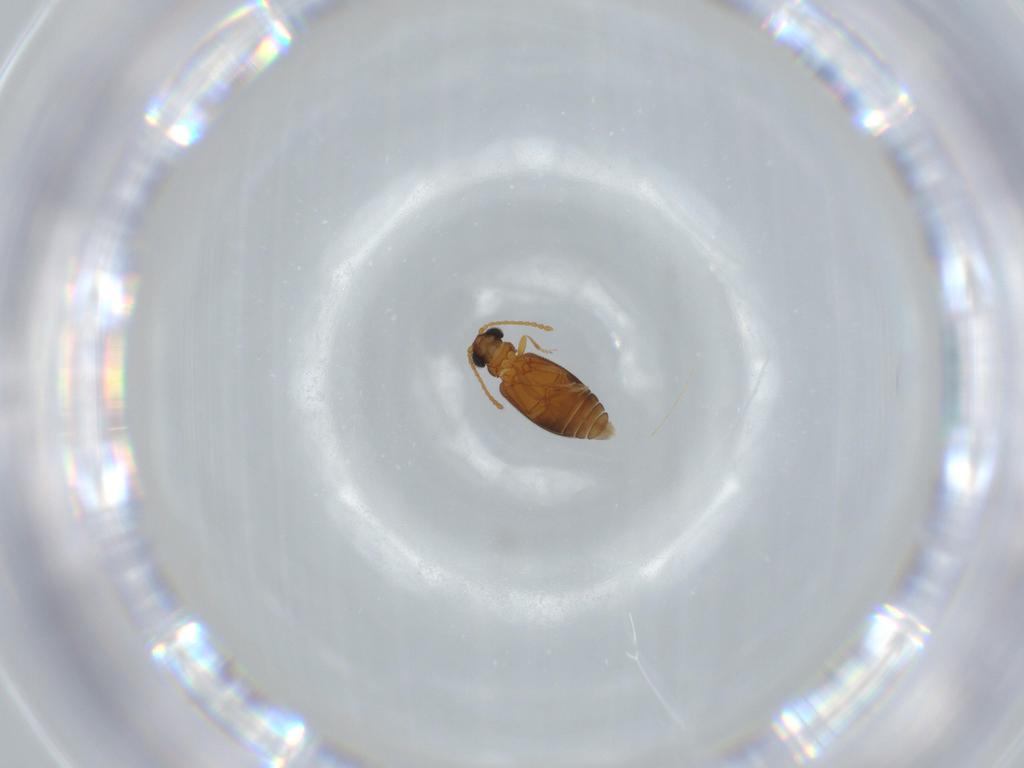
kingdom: Animalia
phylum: Arthropoda
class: Insecta
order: Coleoptera
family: Aderidae
